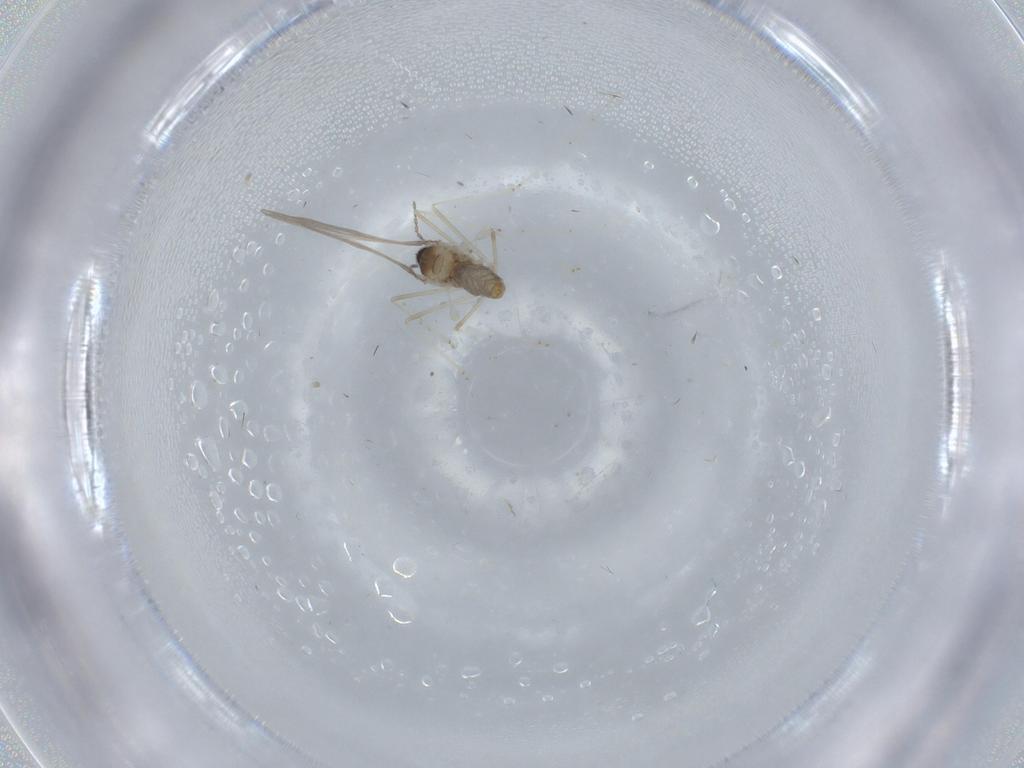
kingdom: Animalia
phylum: Arthropoda
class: Insecta
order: Diptera
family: Cecidomyiidae
